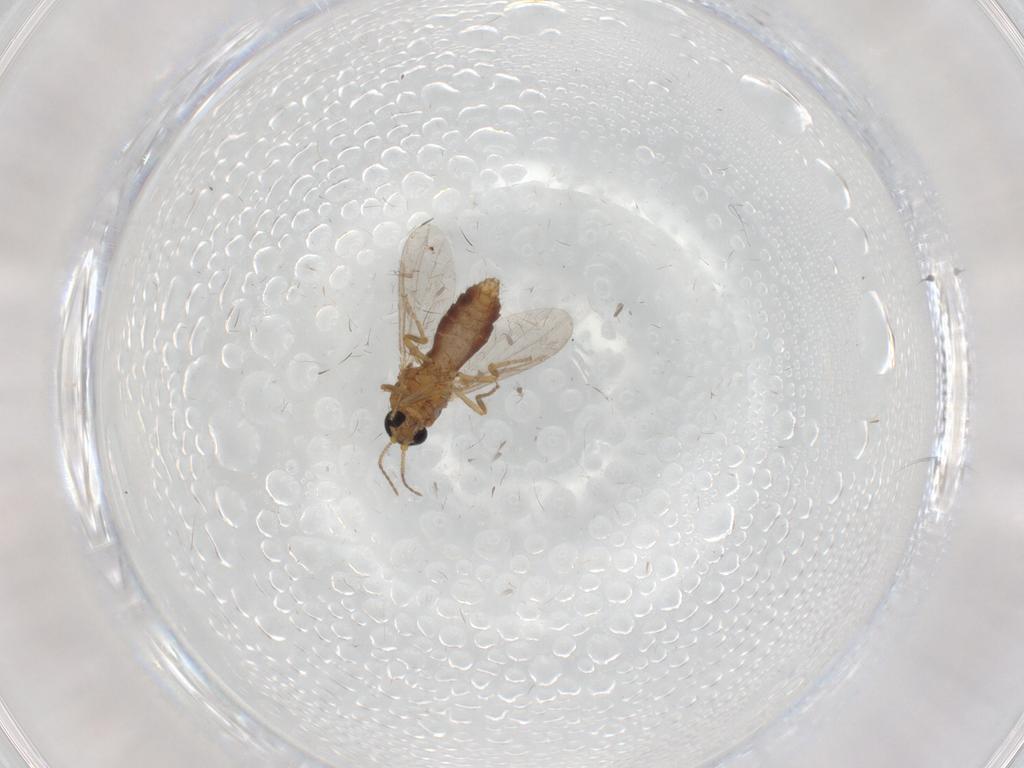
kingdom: Animalia
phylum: Arthropoda
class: Insecta
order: Diptera
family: Ceratopogonidae
